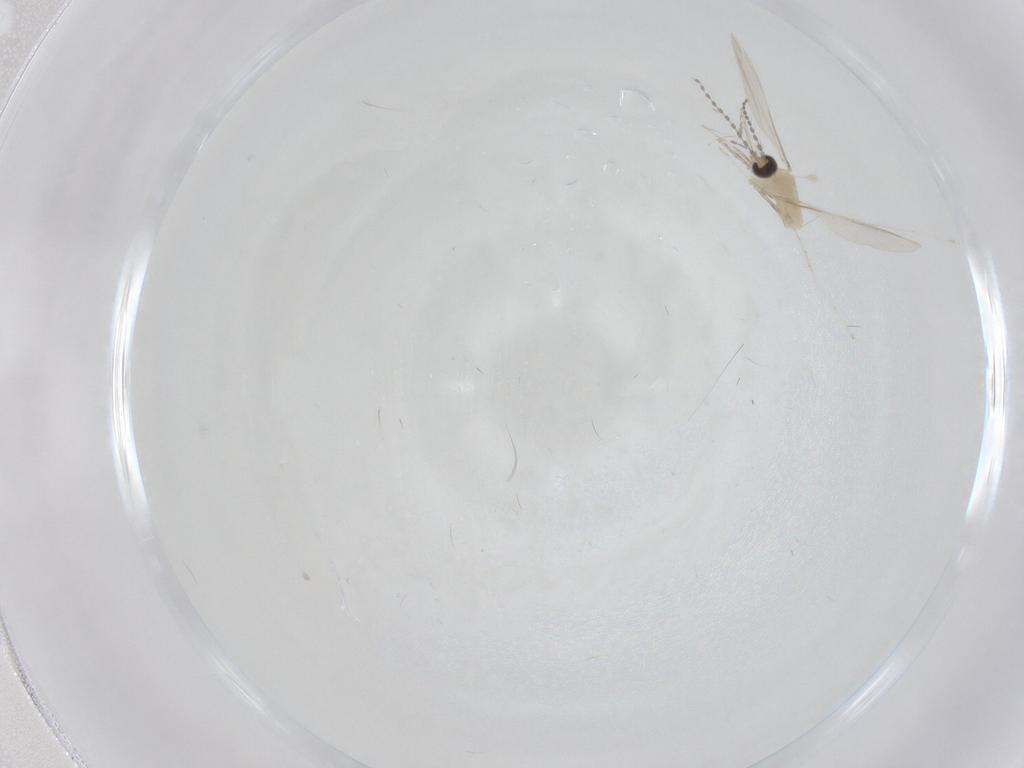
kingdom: Animalia
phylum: Arthropoda
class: Insecta
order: Diptera
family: Cecidomyiidae
